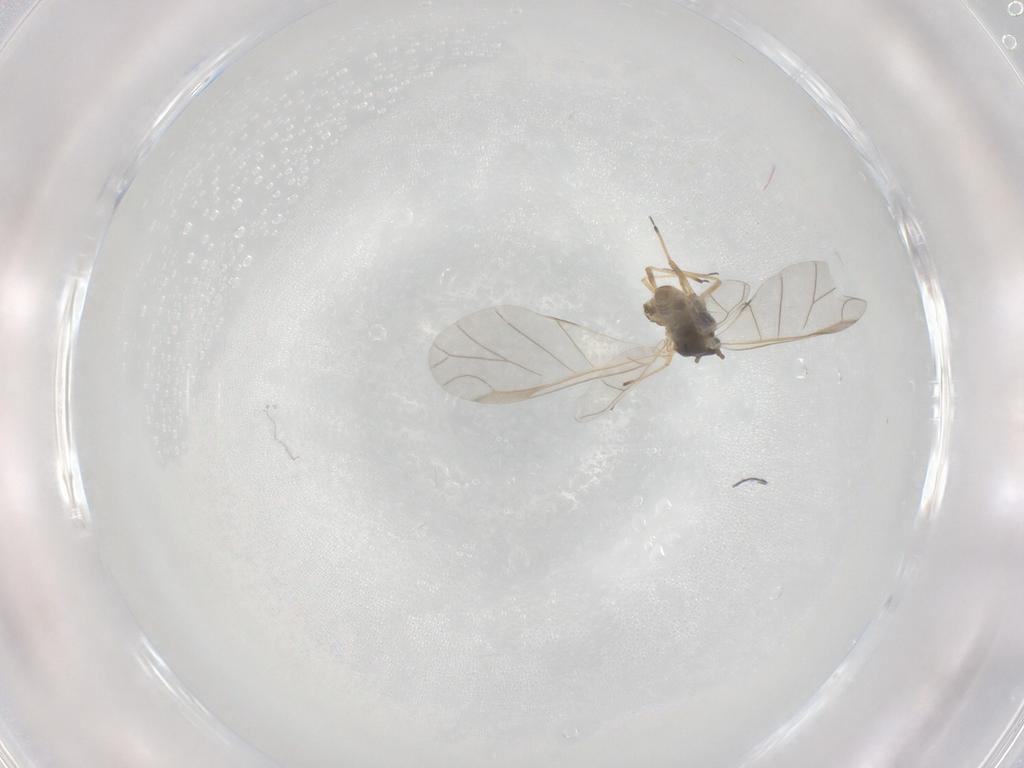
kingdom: Animalia
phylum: Arthropoda
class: Insecta
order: Hemiptera
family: Aphididae
